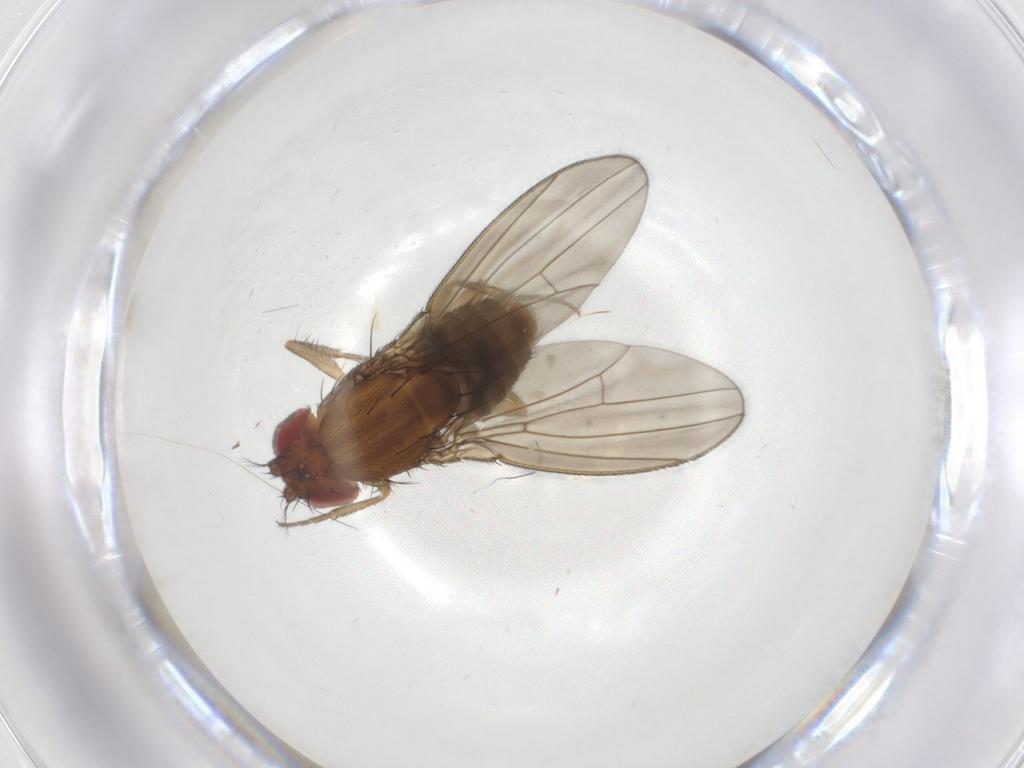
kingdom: Animalia
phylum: Arthropoda
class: Insecta
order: Diptera
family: Drosophilidae
